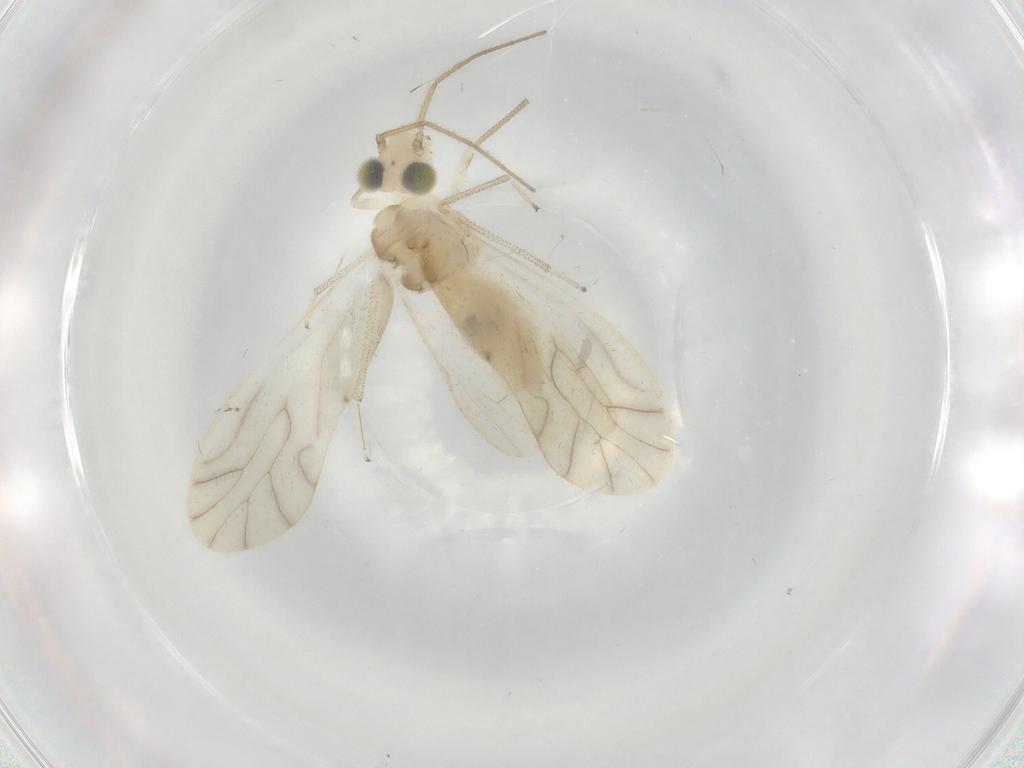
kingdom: Animalia
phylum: Arthropoda
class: Insecta
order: Psocodea
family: Caeciliusidae
